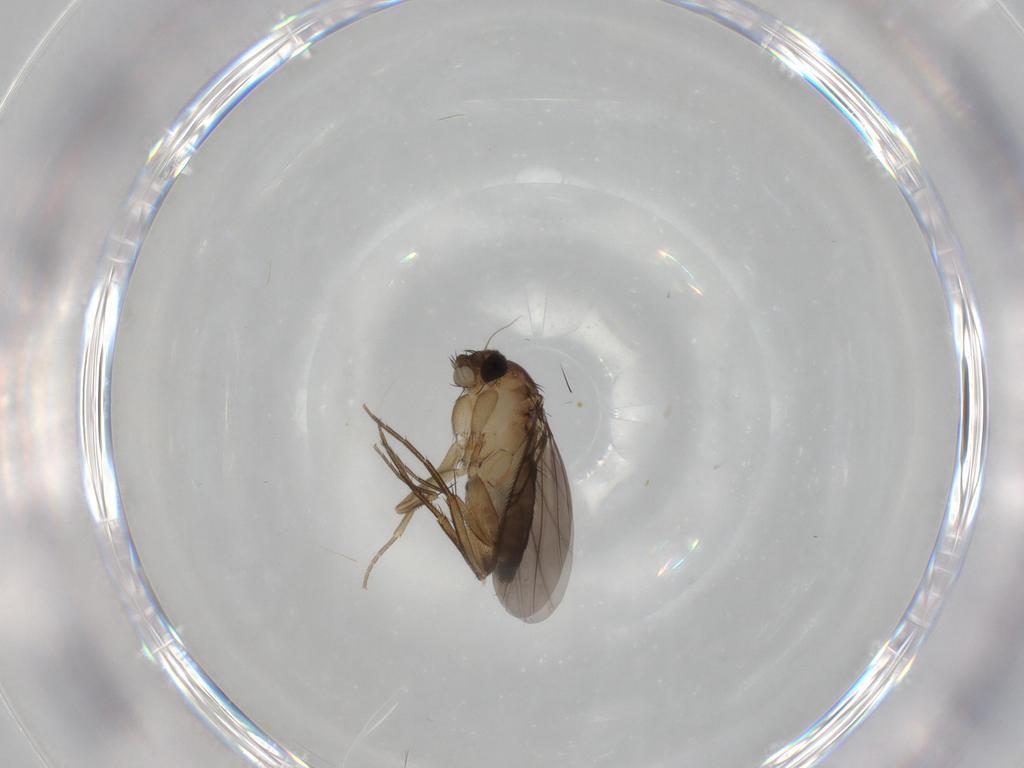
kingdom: Animalia
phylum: Arthropoda
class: Insecta
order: Diptera
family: Phoridae
